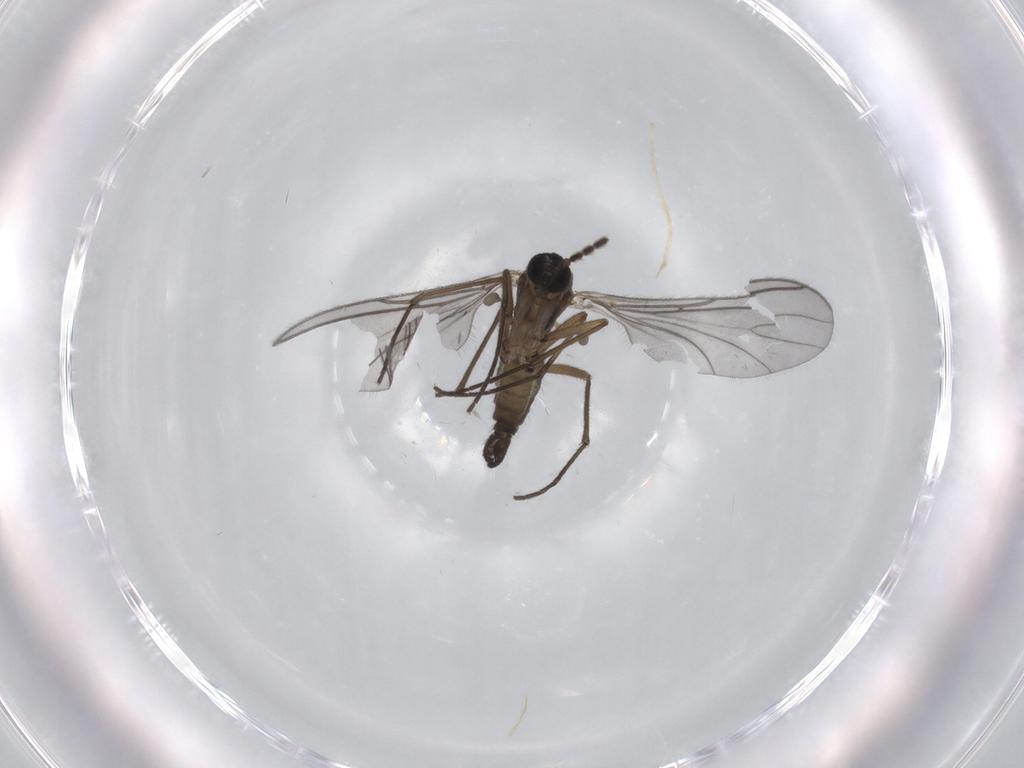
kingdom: Animalia
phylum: Arthropoda
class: Insecta
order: Diptera
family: Sciaridae
